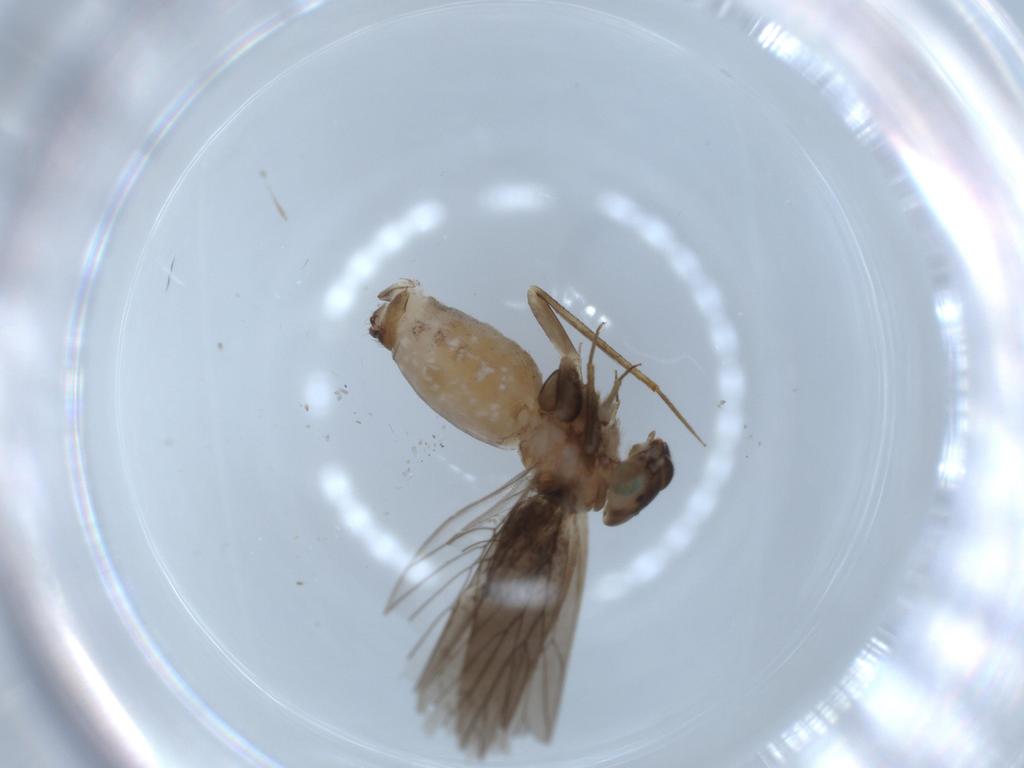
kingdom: Animalia
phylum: Arthropoda
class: Insecta
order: Psocodea
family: Lepidopsocidae
